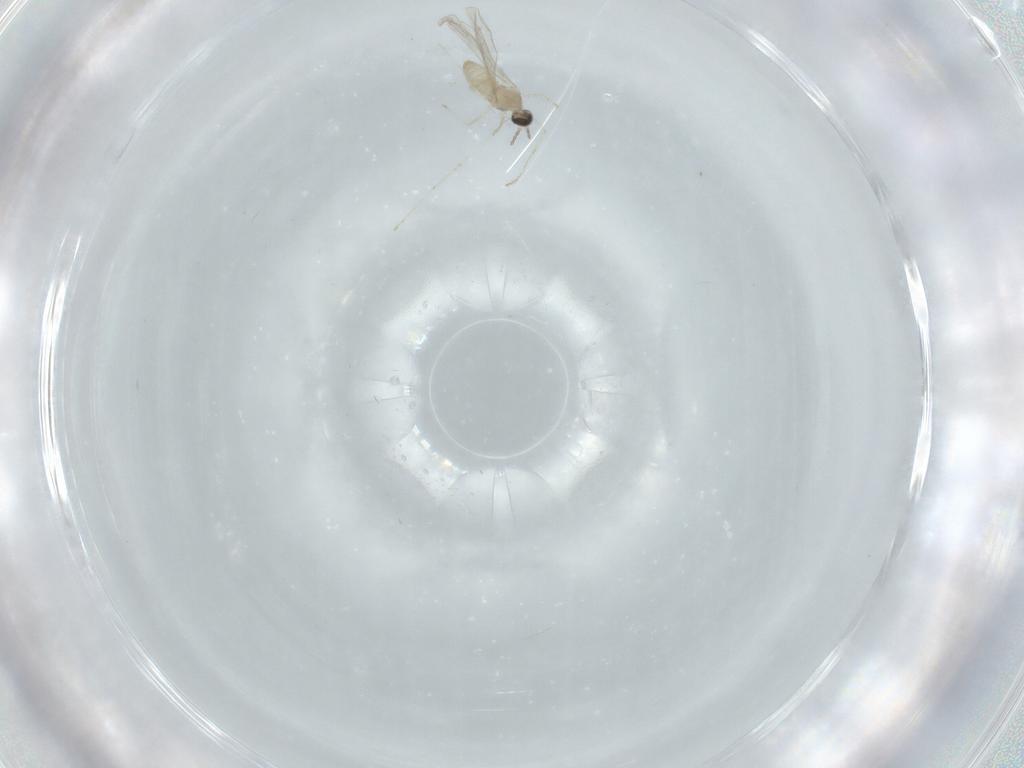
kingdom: Animalia
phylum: Arthropoda
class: Insecta
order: Diptera
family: Chironomidae
